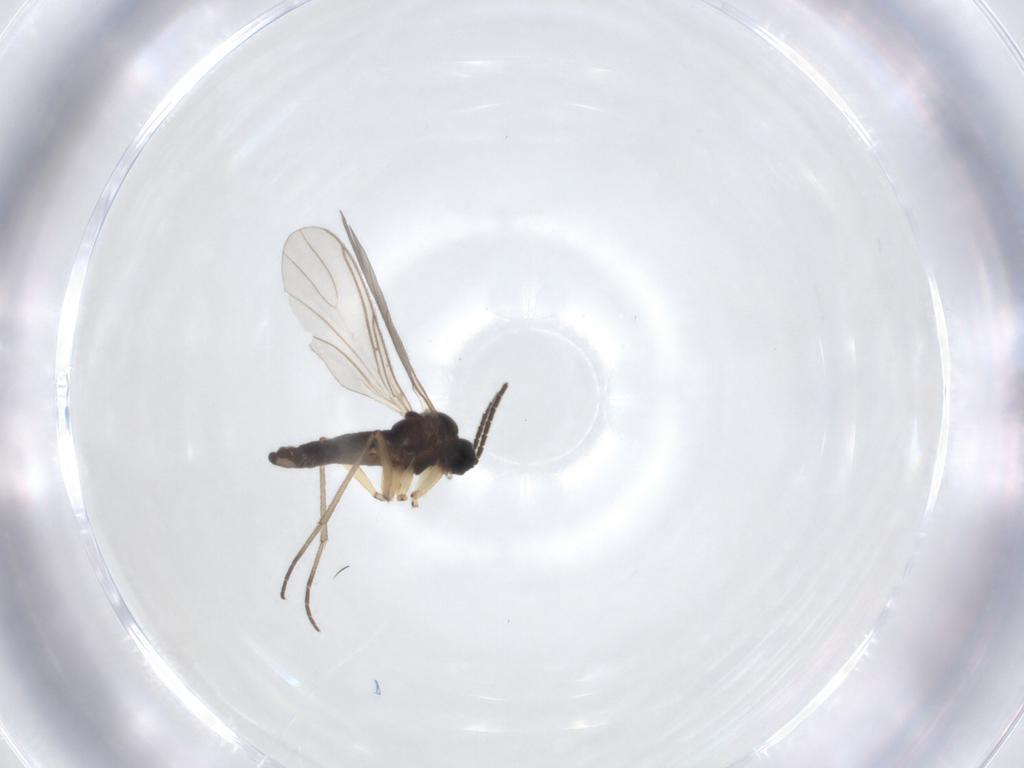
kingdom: Animalia
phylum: Arthropoda
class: Insecta
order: Diptera
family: Sciaridae
